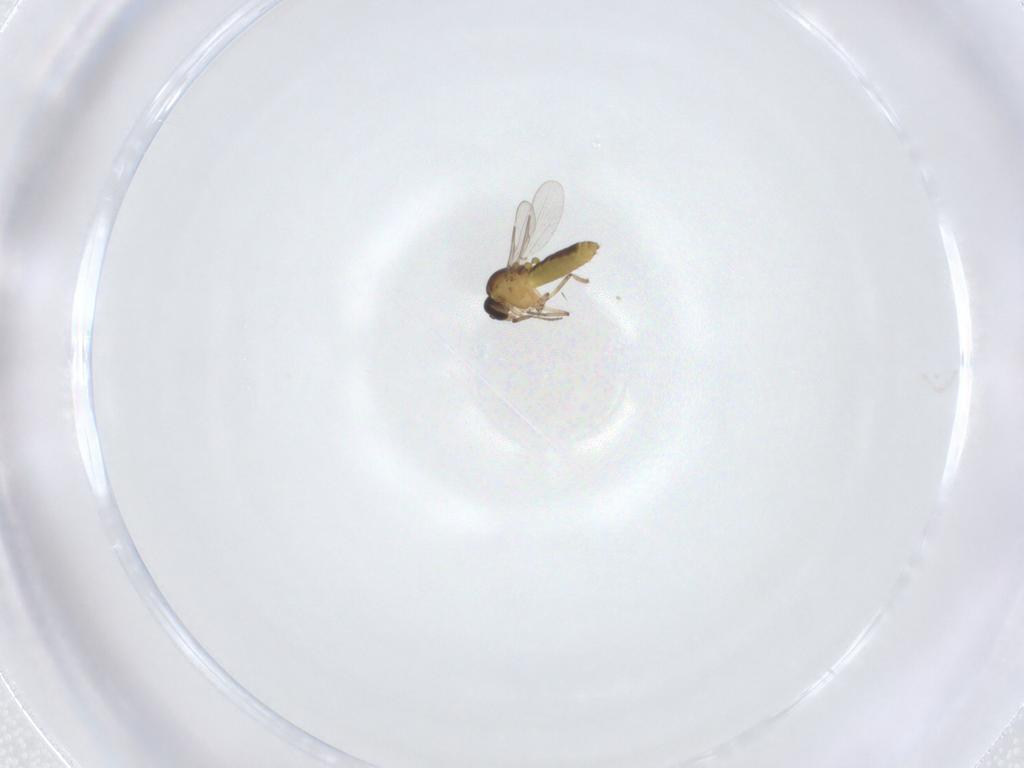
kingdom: Animalia
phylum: Arthropoda
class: Insecta
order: Diptera
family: Ceratopogonidae
